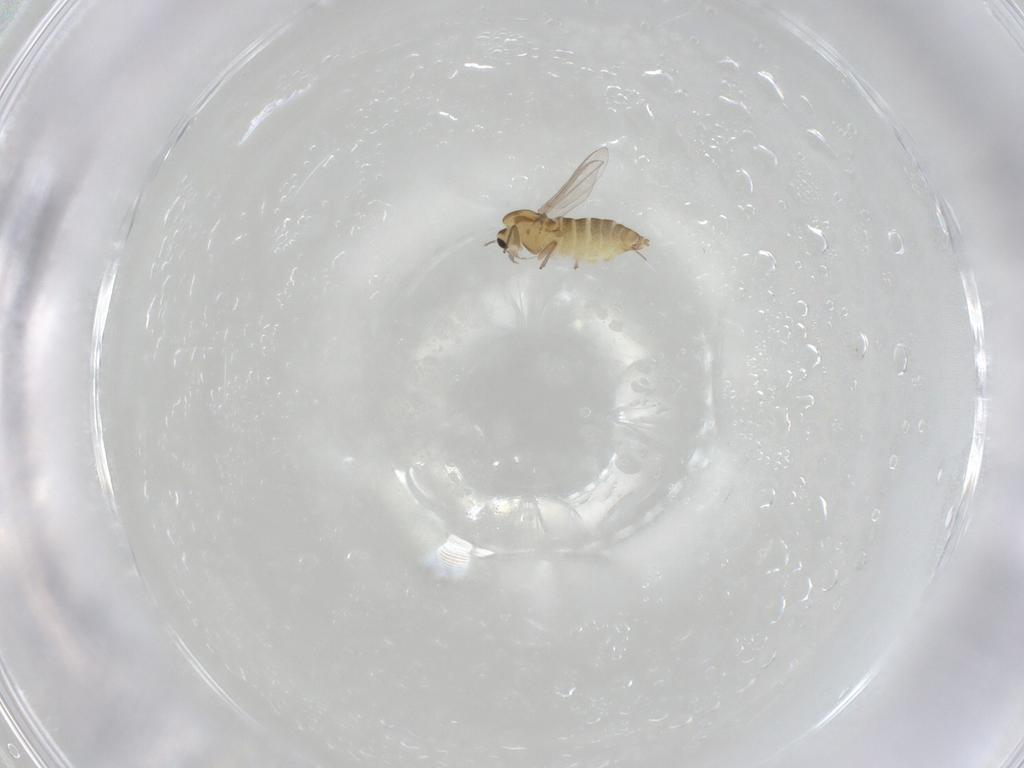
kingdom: Animalia
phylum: Arthropoda
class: Insecta
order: Diptera
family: Chironomidae
